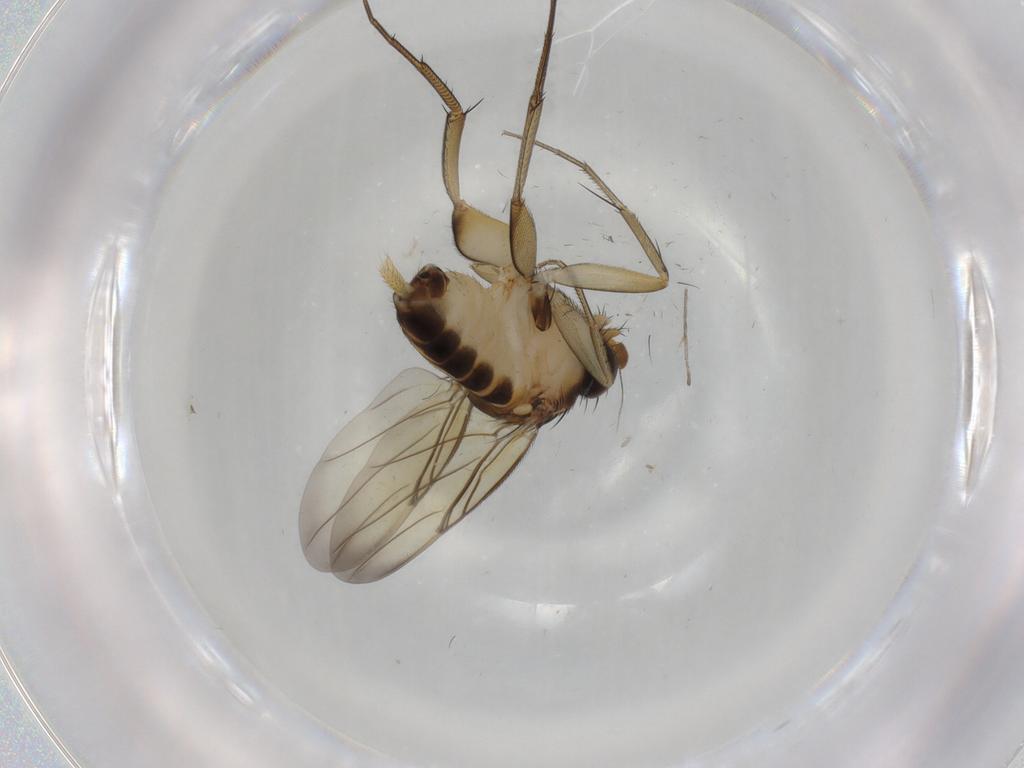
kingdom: Animalia
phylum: Arthropoda
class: Insecta
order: Diptera
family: Phoridae
